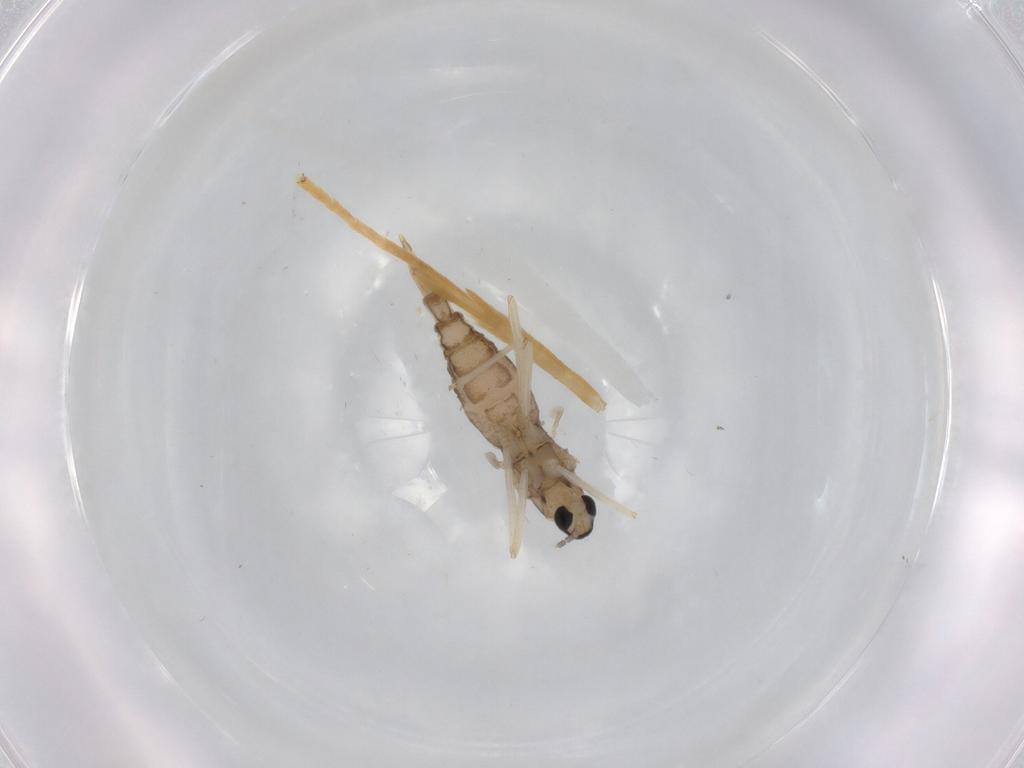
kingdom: Animalia
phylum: Arthropoda
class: Insecta
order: Diptera
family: Cecidomyiidae
